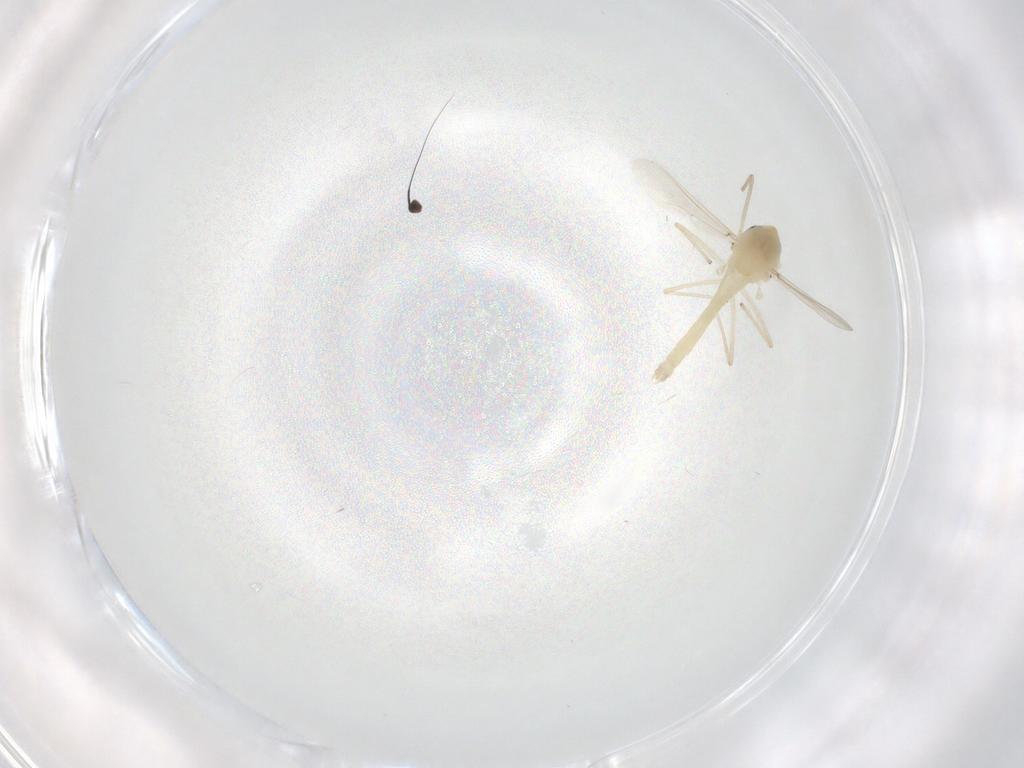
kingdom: Animalia
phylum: Arthropoda
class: Insecta
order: Diptera
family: Chironomidae
